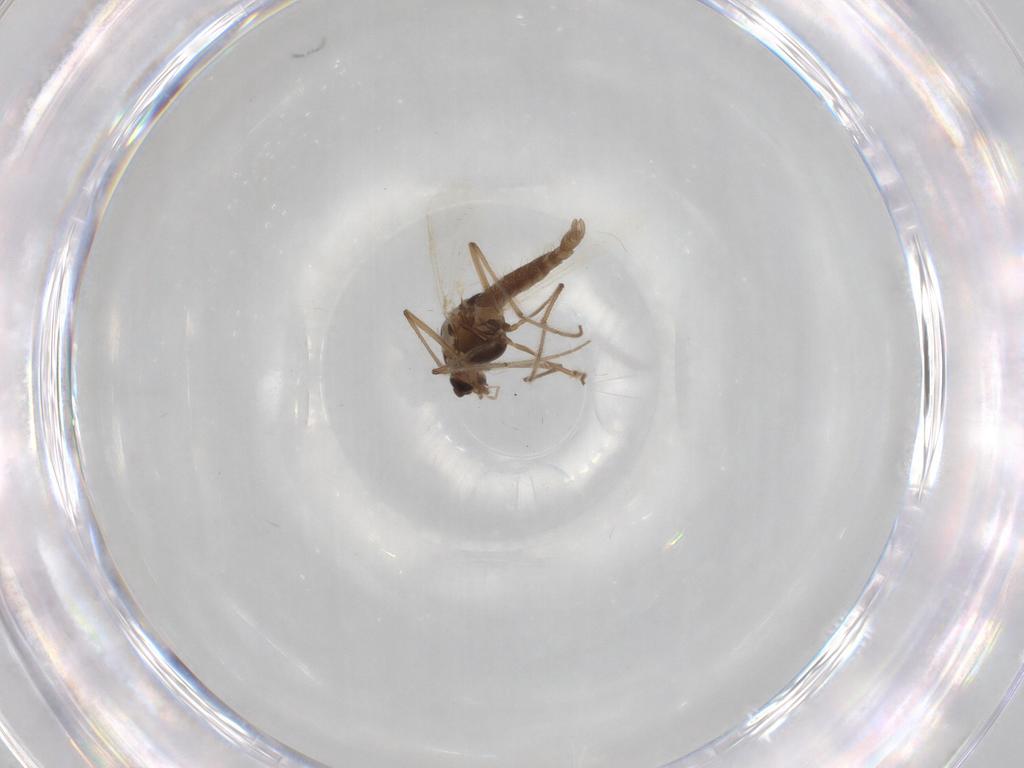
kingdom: Animalia
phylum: Arthropoda
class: Insecta
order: Diptera
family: Chironomidae
